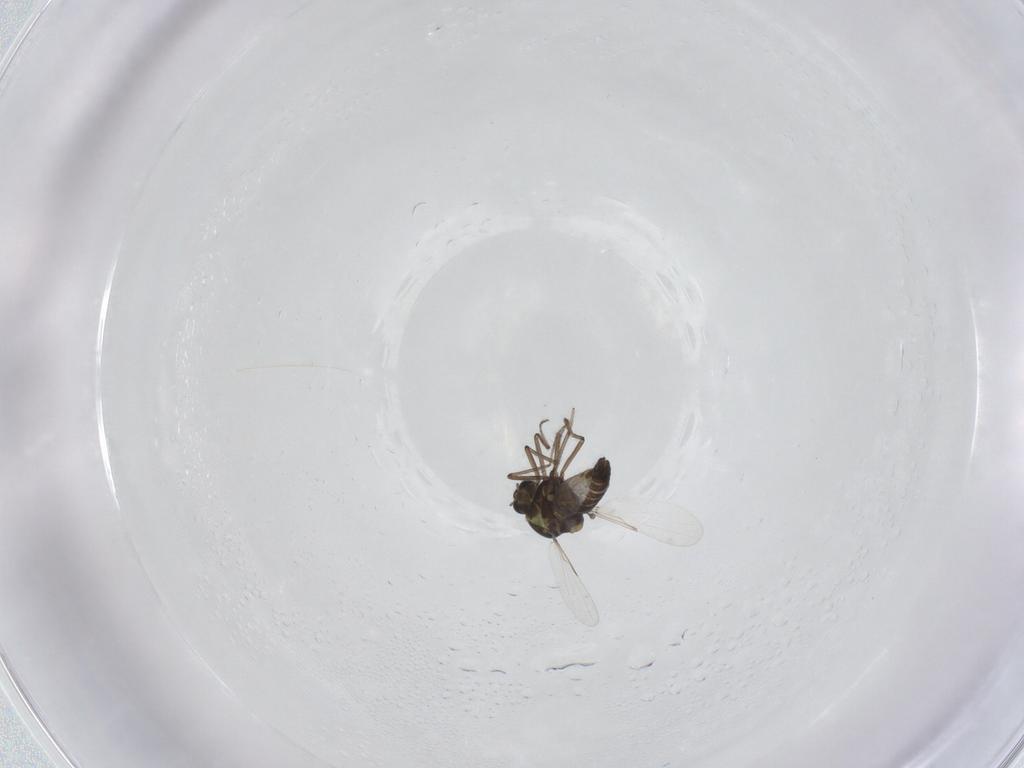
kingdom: Animalia
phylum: Arthropoda
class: Insecta
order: Diptera
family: Ceratopogonidae
